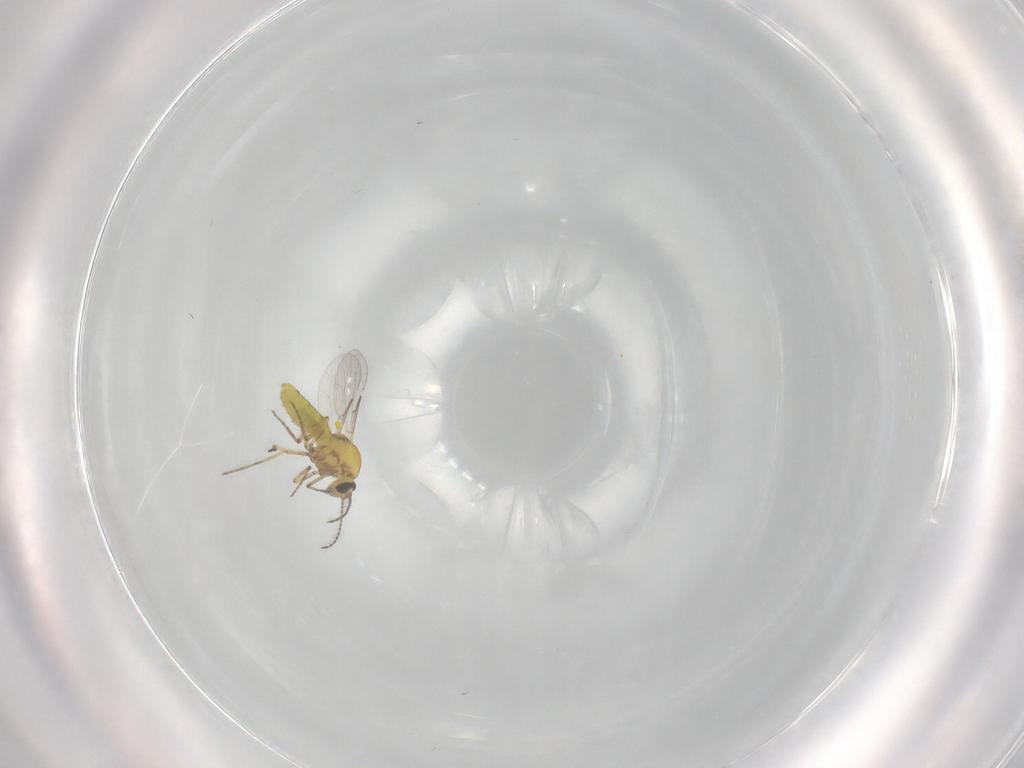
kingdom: Animalia
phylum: Arthropoda
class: Insecta
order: Diptera
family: Ceratopogonidae
